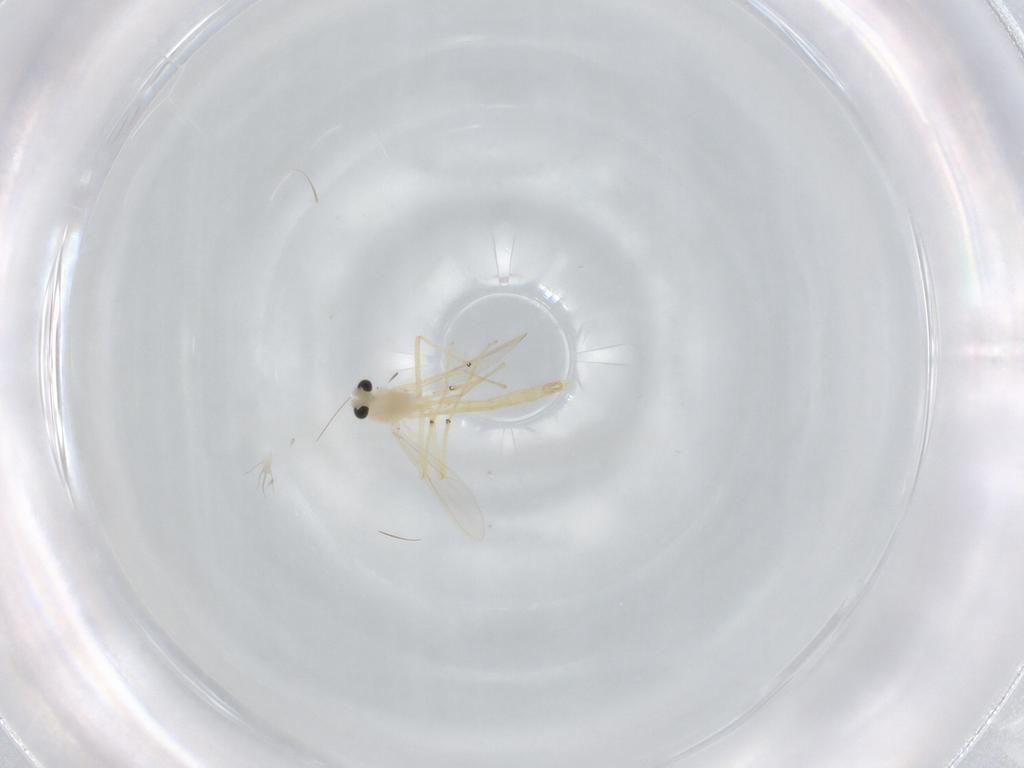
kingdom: Animalia
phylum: Arthropoda
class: Insecta
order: Diptera
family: Chironomidae
